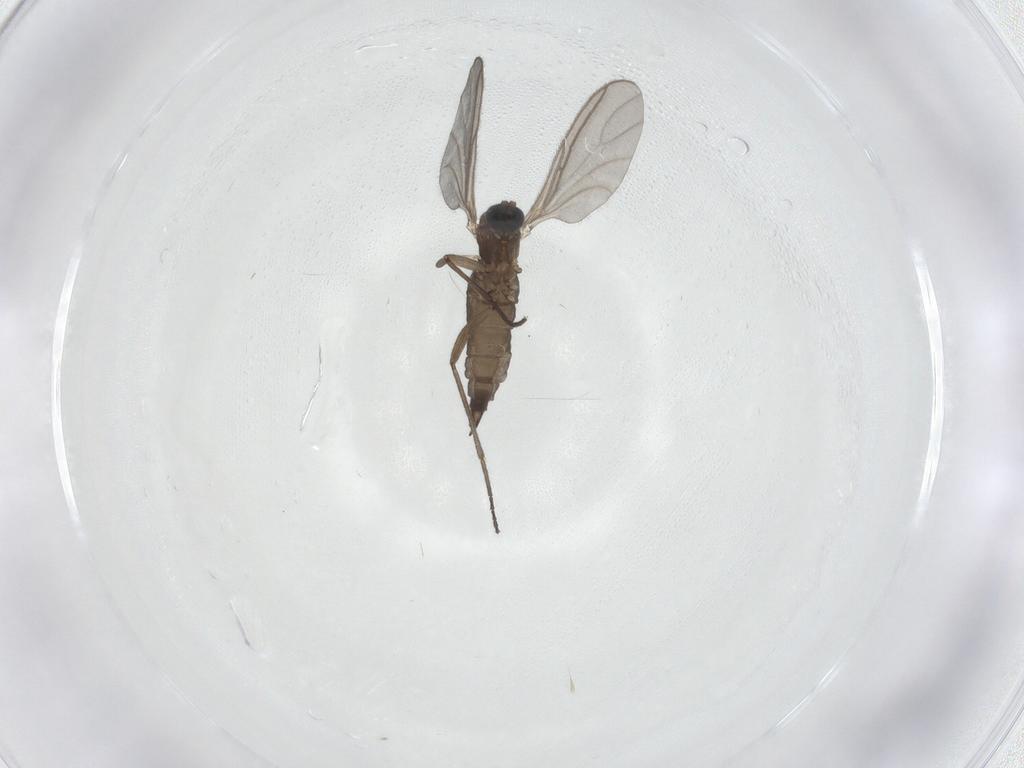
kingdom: Animalia
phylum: Arthropoda
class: Insecta
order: Diptera
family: Sciaridae
